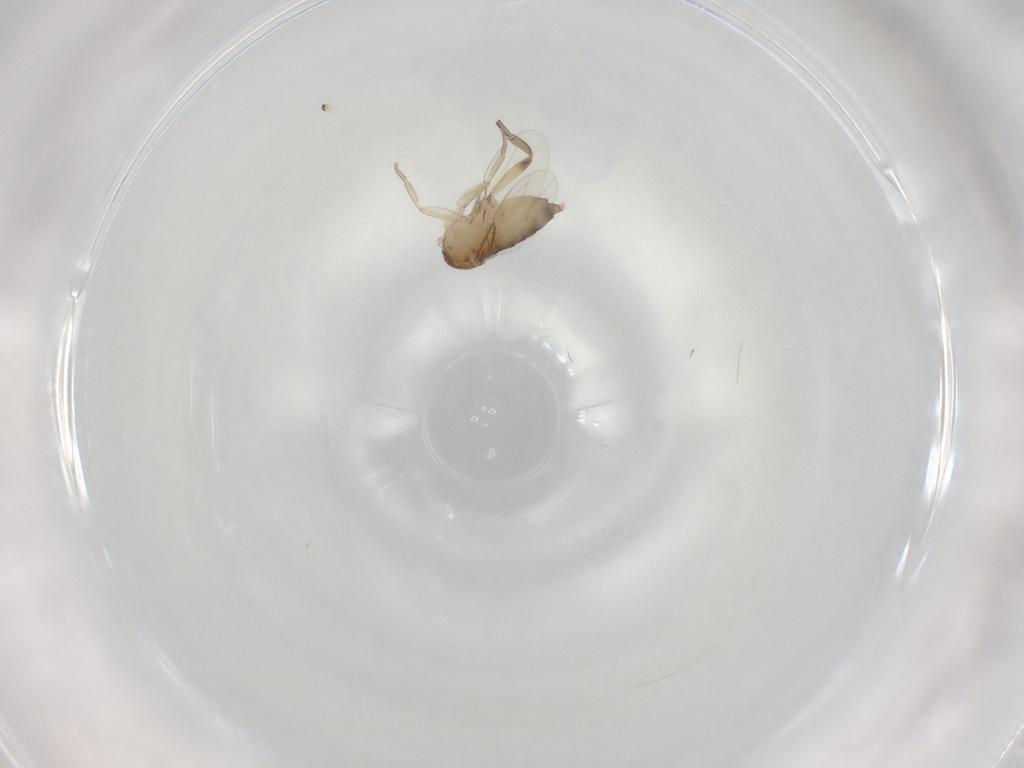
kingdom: Animalia
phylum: Arthropoda
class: Insecta
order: Diptera
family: Phoridae
